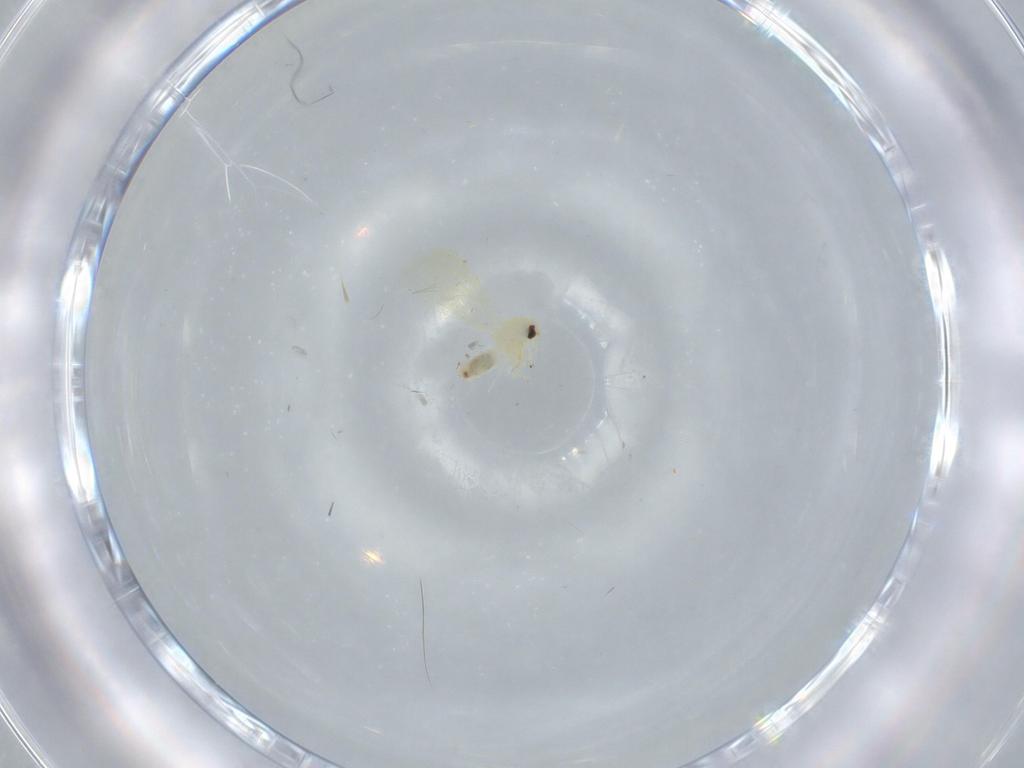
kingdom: Animalia
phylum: Arthropoda
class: Insecta
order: Hemiptera
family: Aleyrodidae
